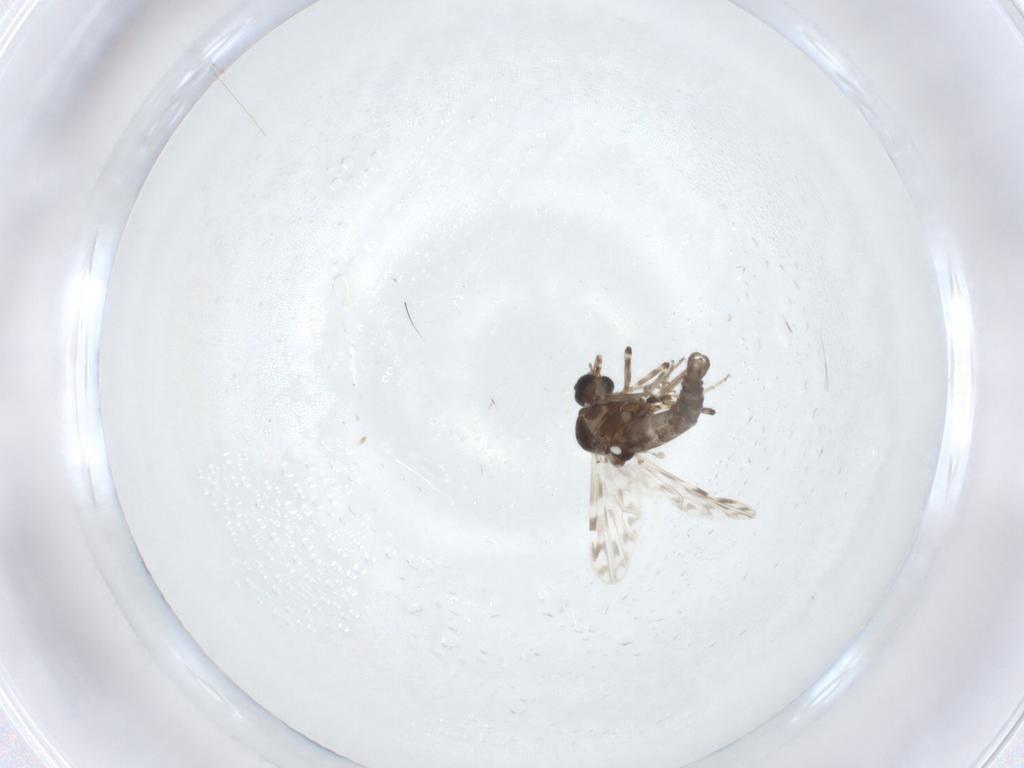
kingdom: Animalia
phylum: Arthropoda
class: Insecta
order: Diptera
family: Ceratopogonidae
